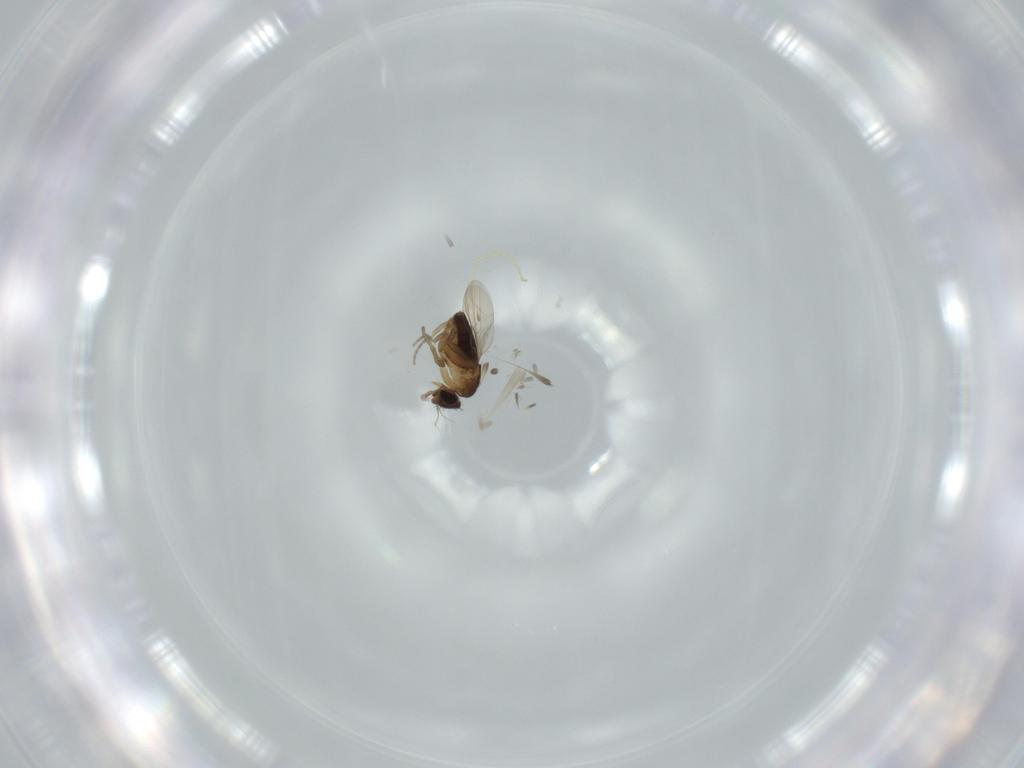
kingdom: Animalia
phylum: Arthropoda
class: Insecta
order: Diptera
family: Phoridae
